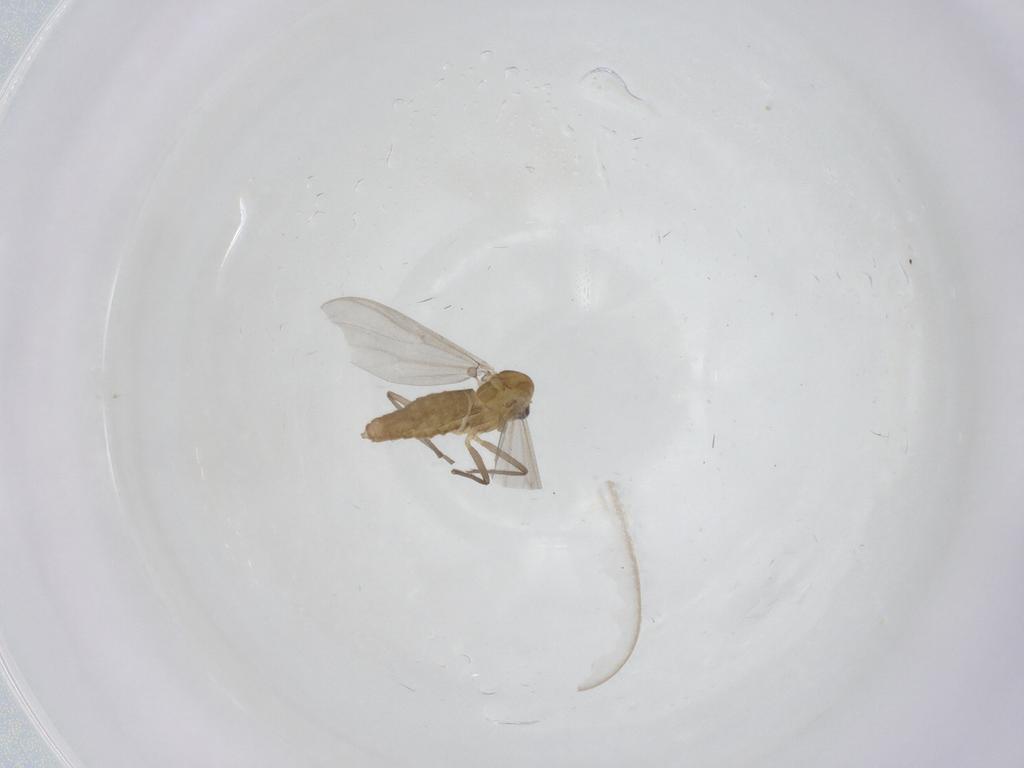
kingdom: Animalia
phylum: Arthropoda
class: Insecta
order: Diptera
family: Chironomidae
